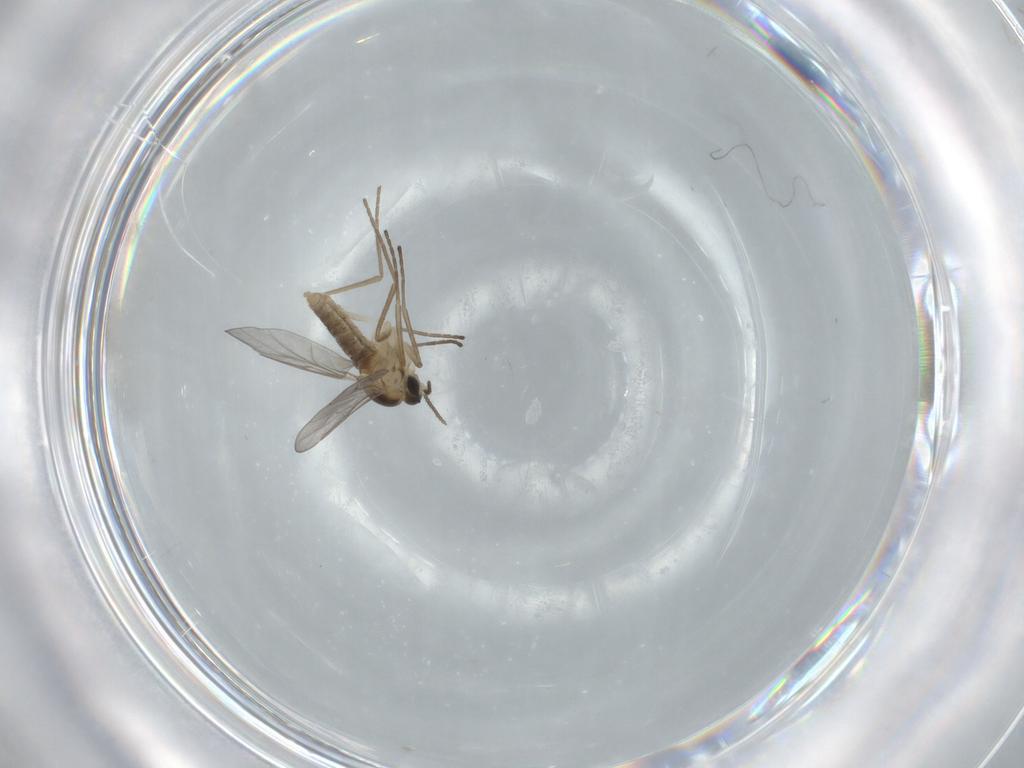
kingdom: Animalia
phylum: Arthropoda
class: Insecta
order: Diptera
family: Cecidomyiidae
